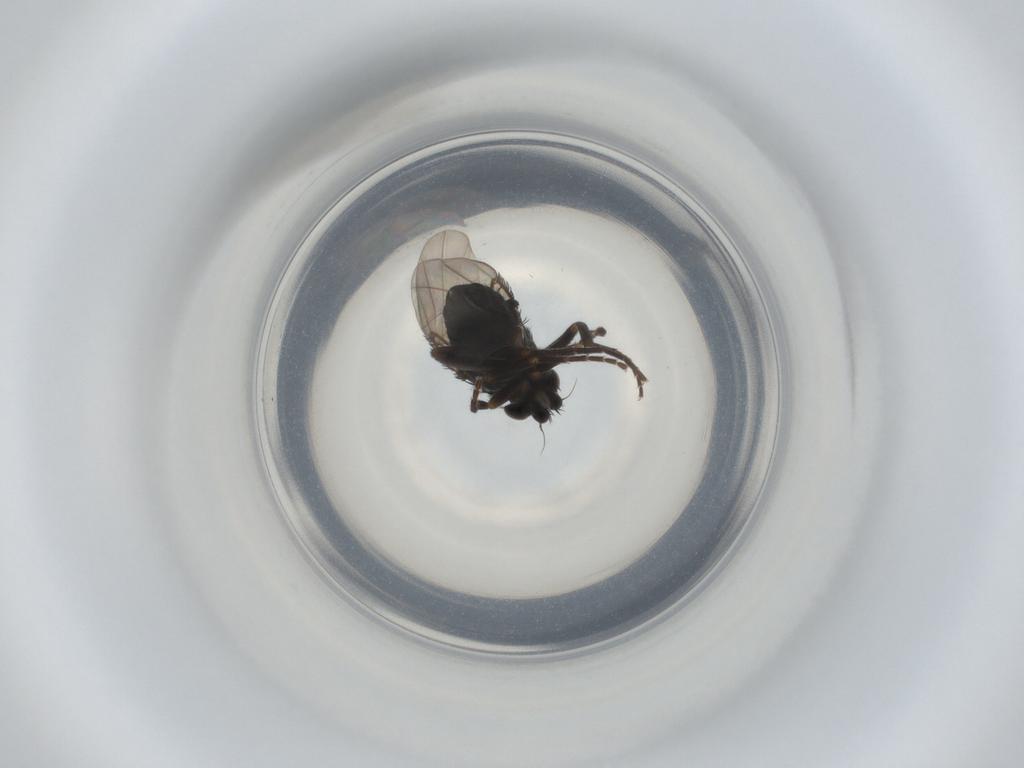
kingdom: Animalia
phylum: Arthropoda
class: Insecta
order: Diptera
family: Phoridae
